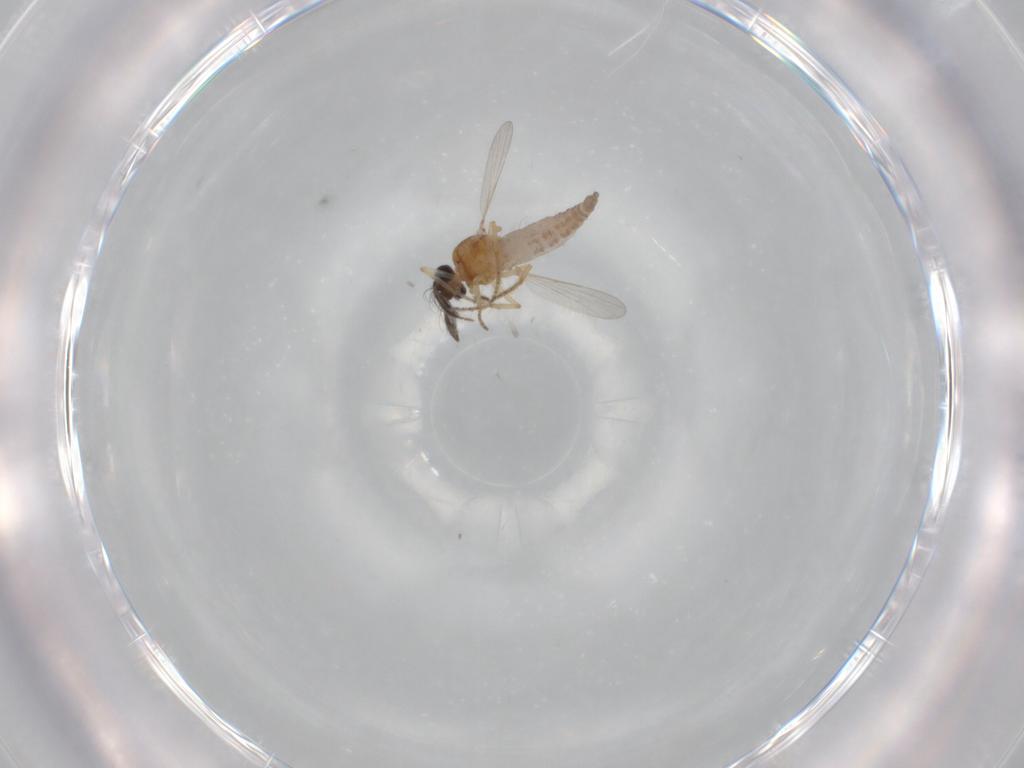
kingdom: Animalia
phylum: Arthropoda
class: Insecta
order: Diptera
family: Ceratopogonidae
